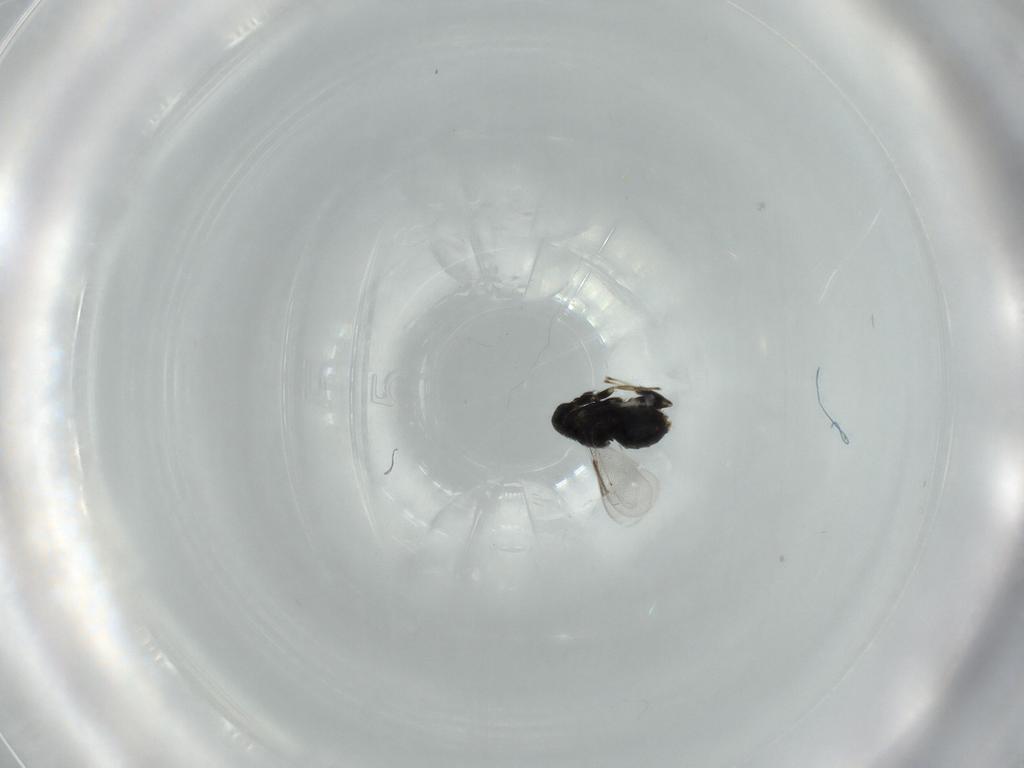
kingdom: Animalia
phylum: Arthropoda
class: Insecta
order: Hymenoptera
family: Aphelinidae
